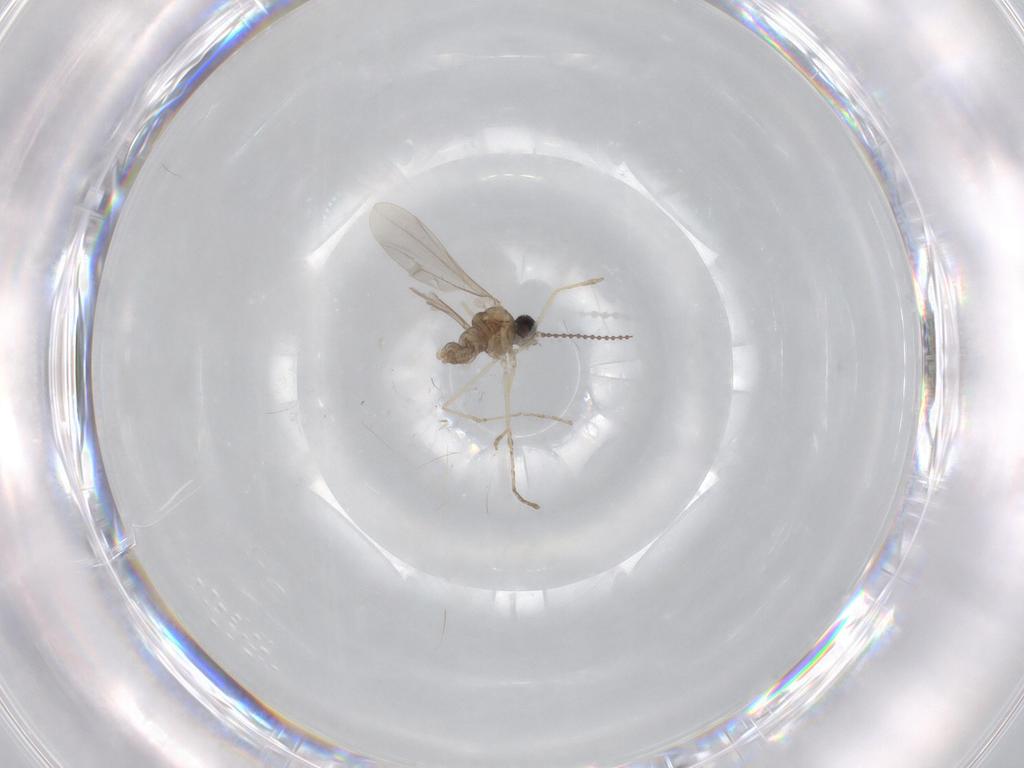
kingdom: Animalia
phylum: Arthropoda
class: Insecta
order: Diptera
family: Cecidomyiidae
